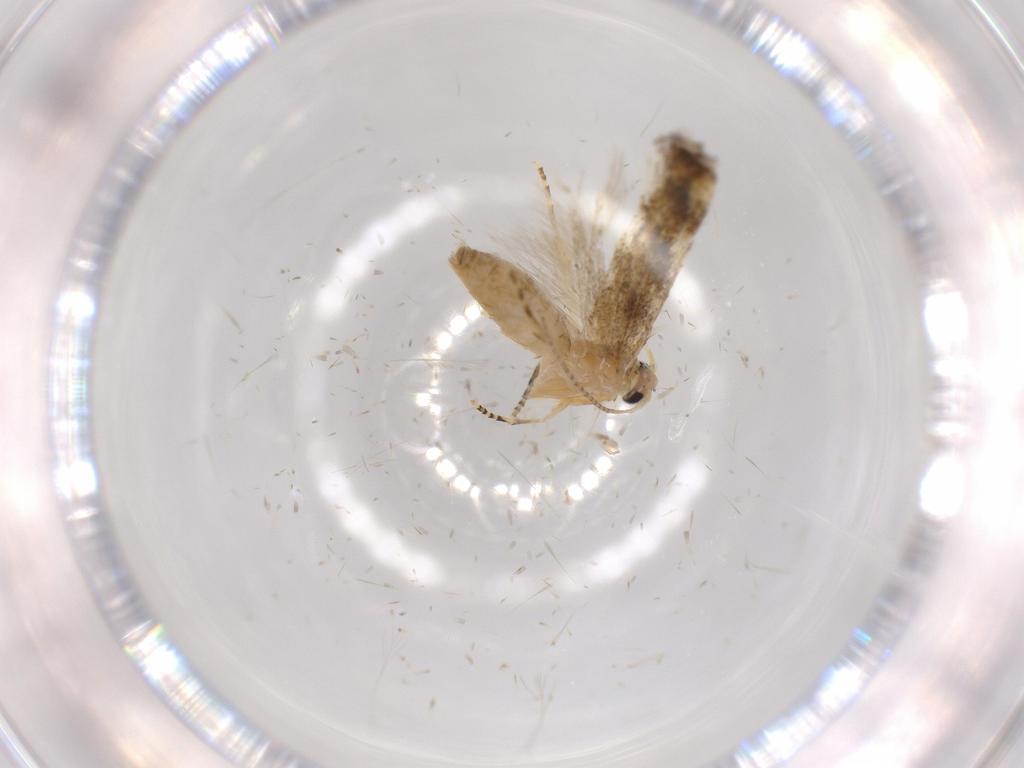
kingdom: Animalia
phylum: Arthropoda
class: Insecta
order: Lepidoptera
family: Bucculatricidae
